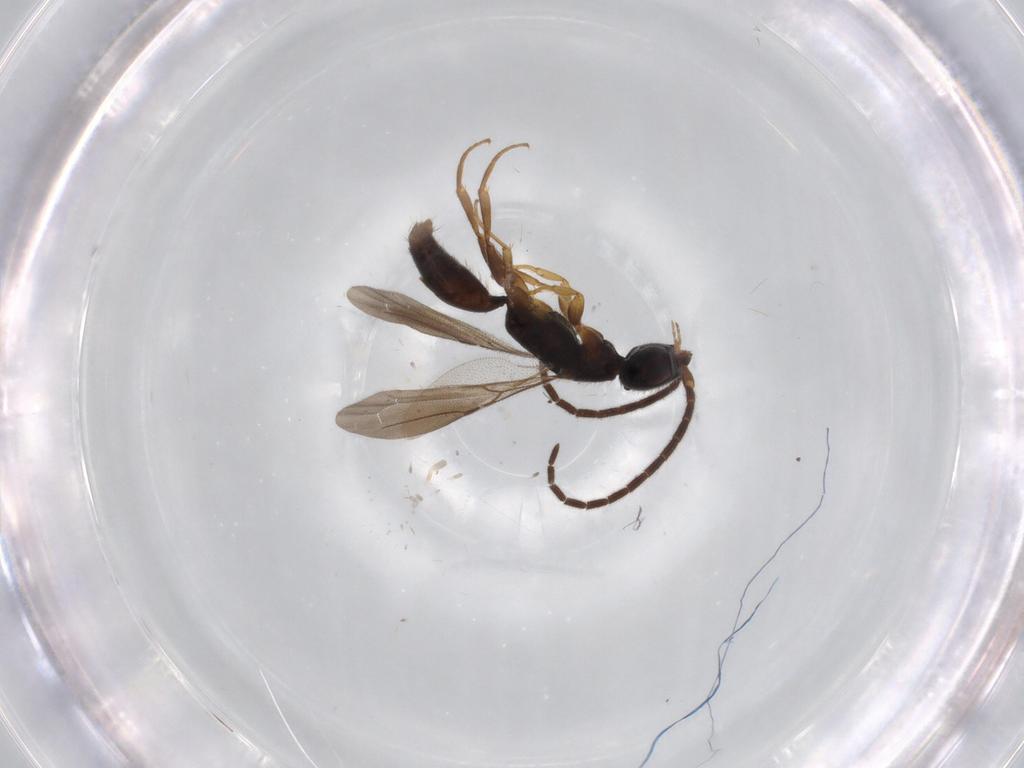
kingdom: Animalia
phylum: Arthropoda
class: Insecta
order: Hymenoptera
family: Bethylidae
